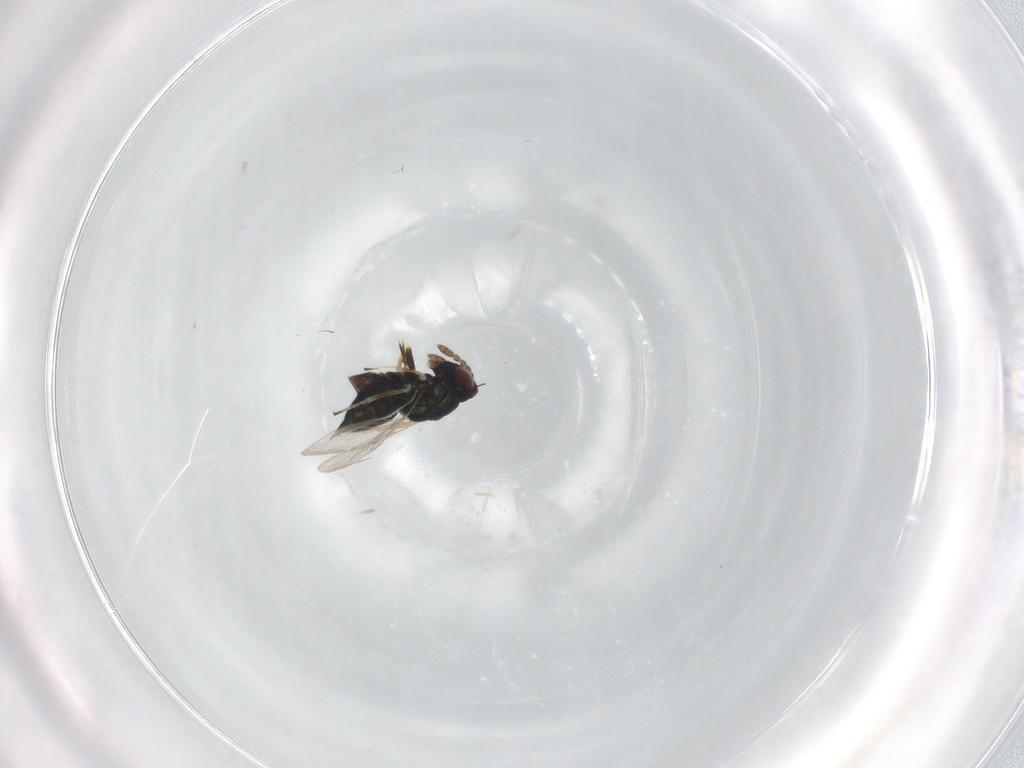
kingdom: Animalia
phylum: Arthropoda
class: Insecta
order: Hymenoptera
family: Eulophidae
